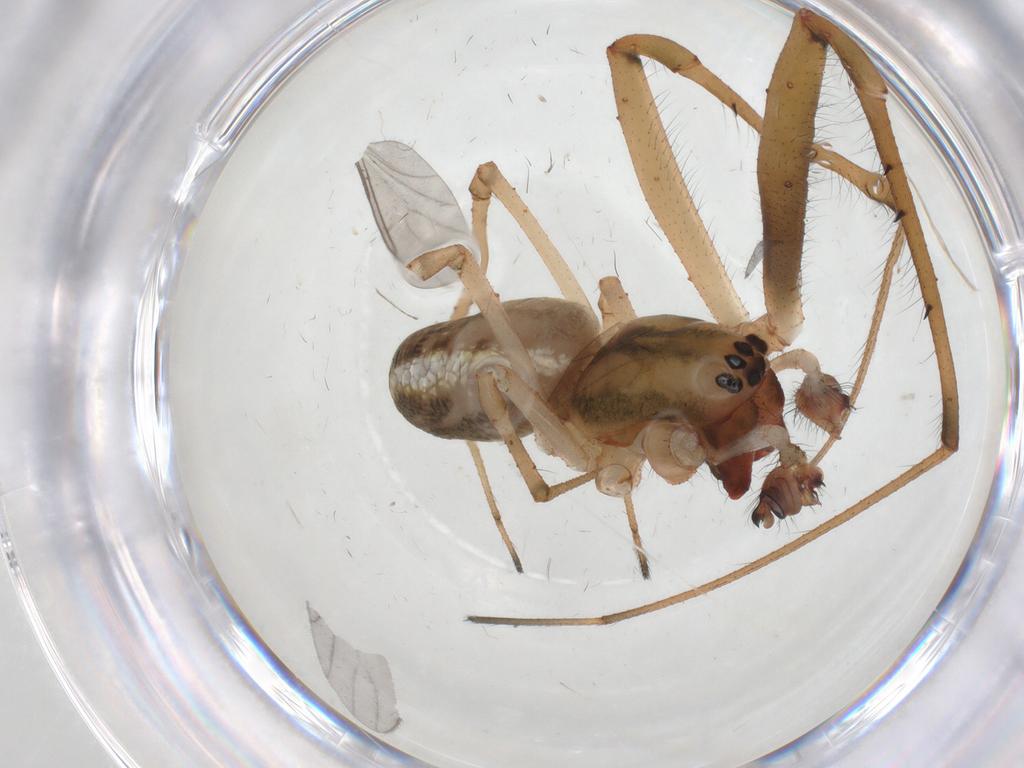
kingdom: Animalia
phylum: Arthropoda
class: Arachnida
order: Araneae
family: Tetragnathidae
